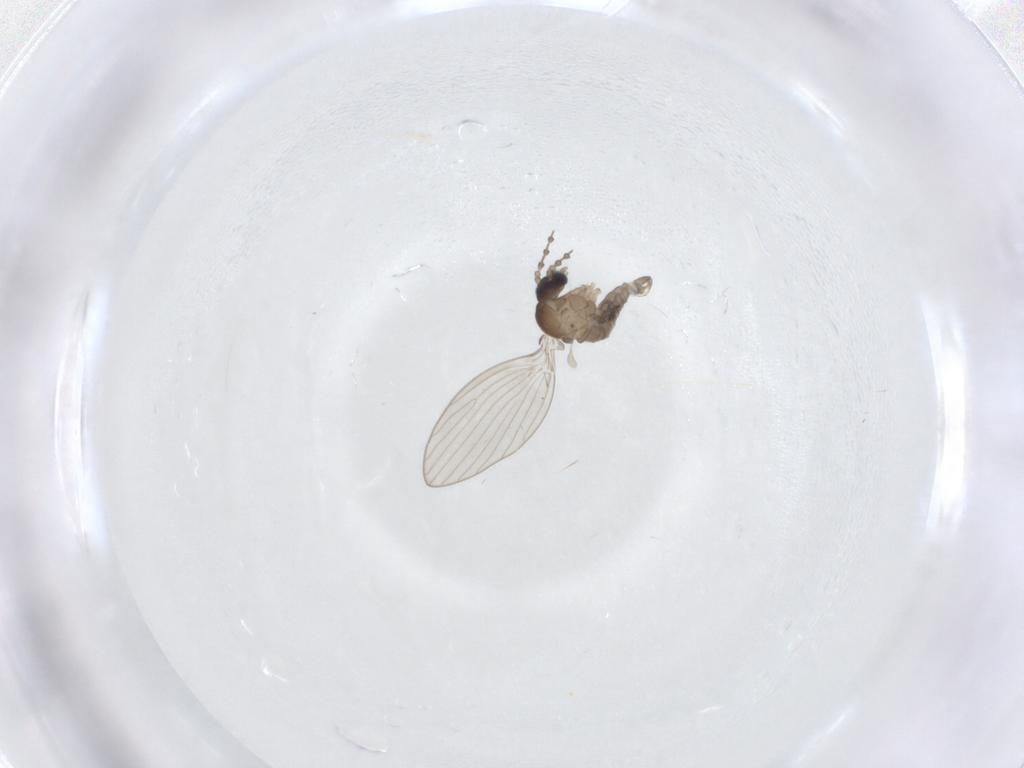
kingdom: Animalia
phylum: Arthropoda
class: Insecta
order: Diptera
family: Psychodidae
